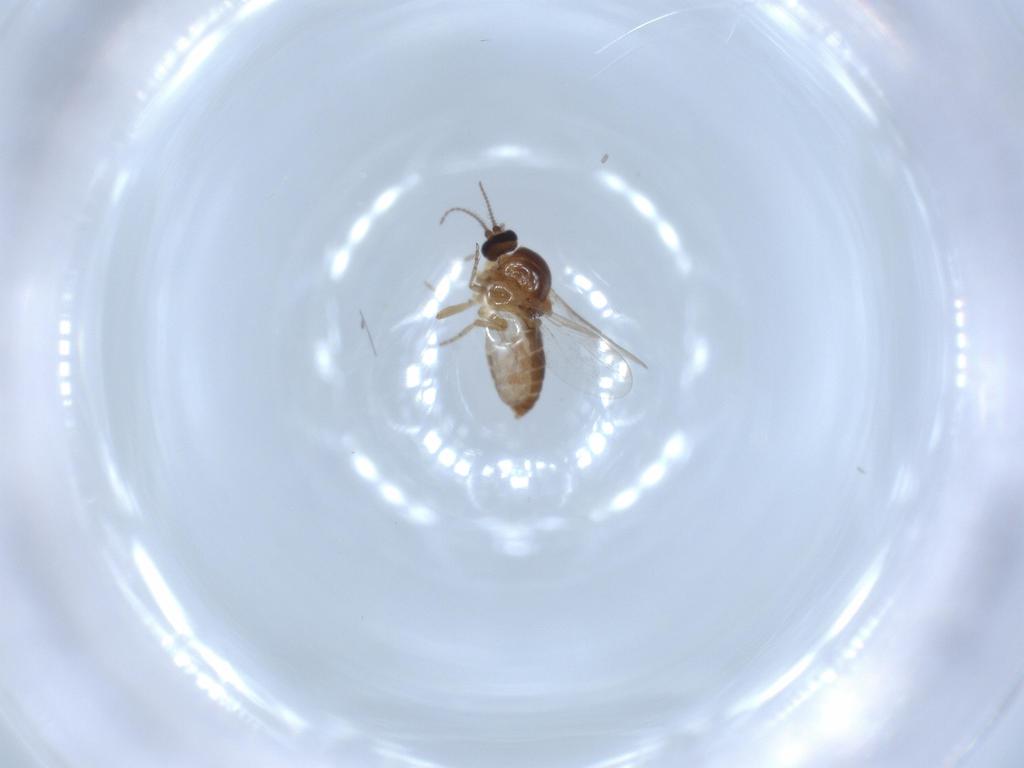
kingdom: Animalia
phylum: Arthropoda
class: Insecta
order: Diptera
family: Ceratopogonidae
